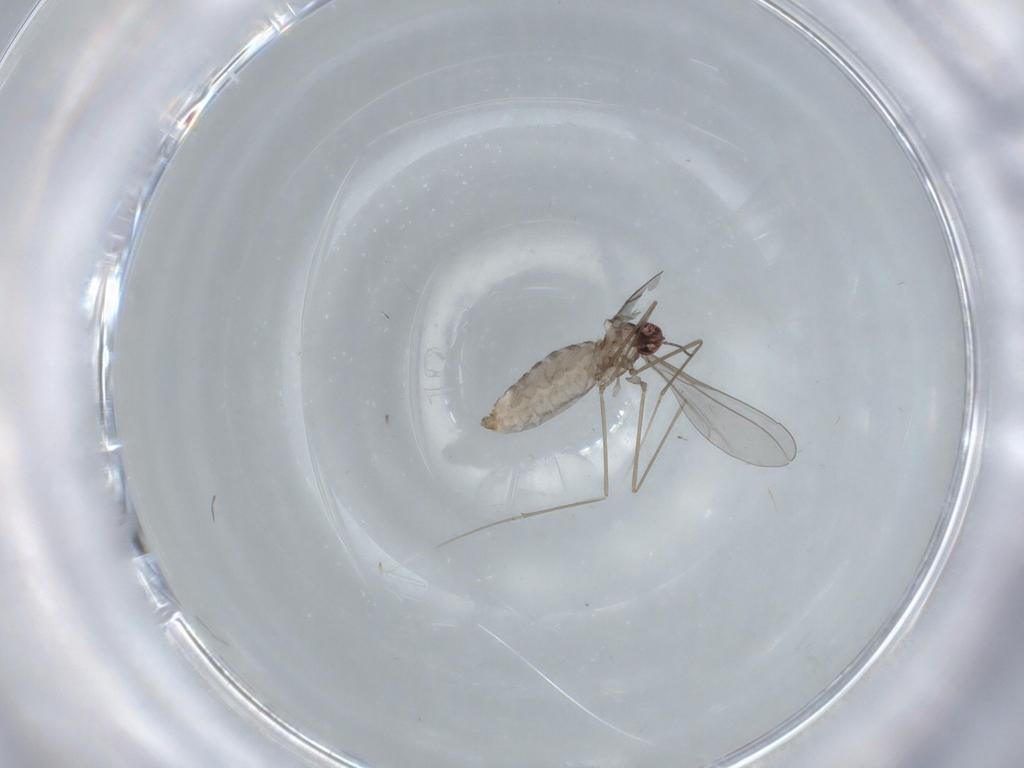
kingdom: Animalia
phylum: Arthropoda
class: Insecta
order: Diptera
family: Cecidomyiidae
